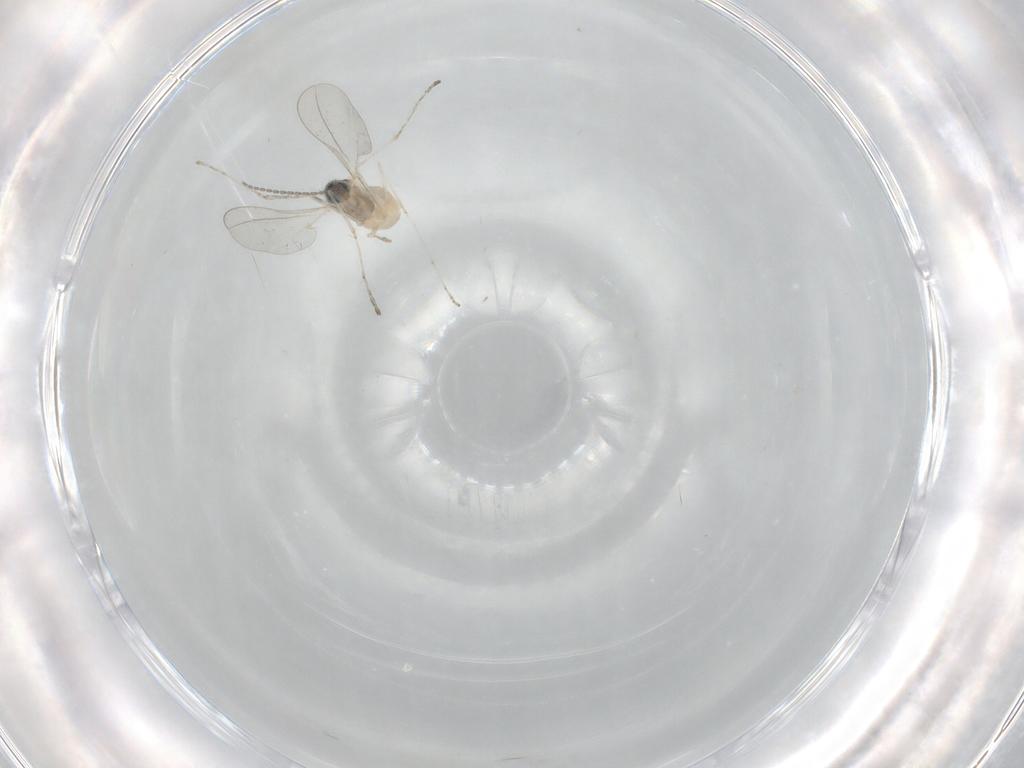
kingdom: Animalia
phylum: Arthropoda
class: Insecta
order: Diptera
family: Cecidomyiidae
